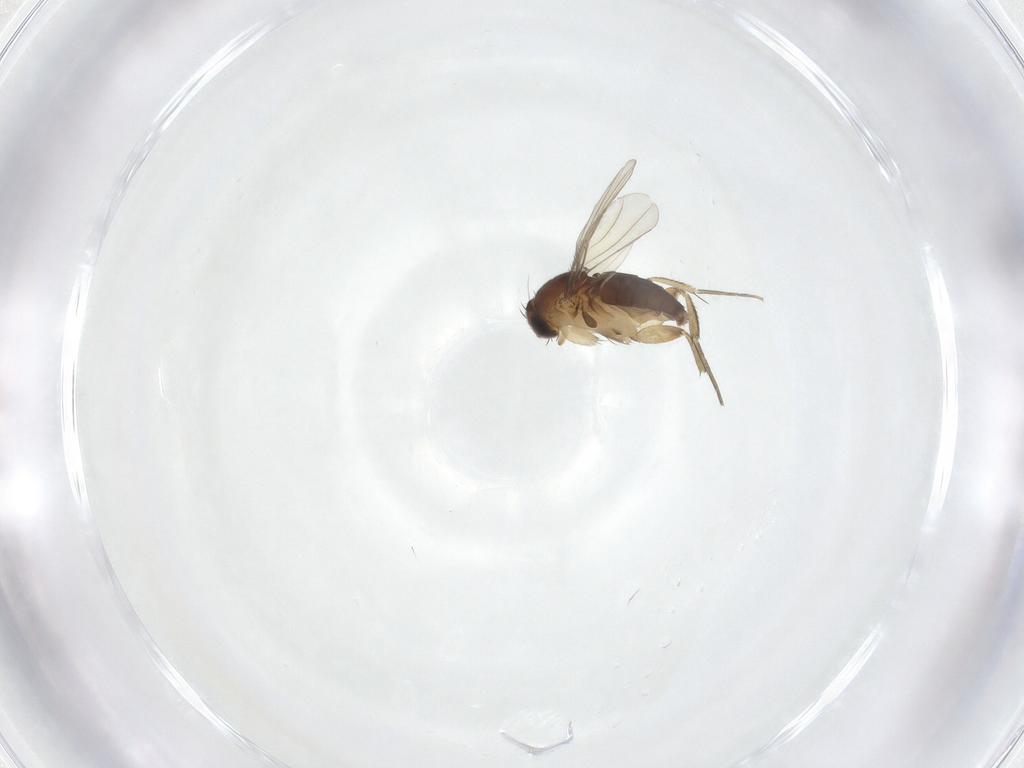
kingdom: Animalia
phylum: Arthropoda
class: Insecta
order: Diptera
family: Phoridae
